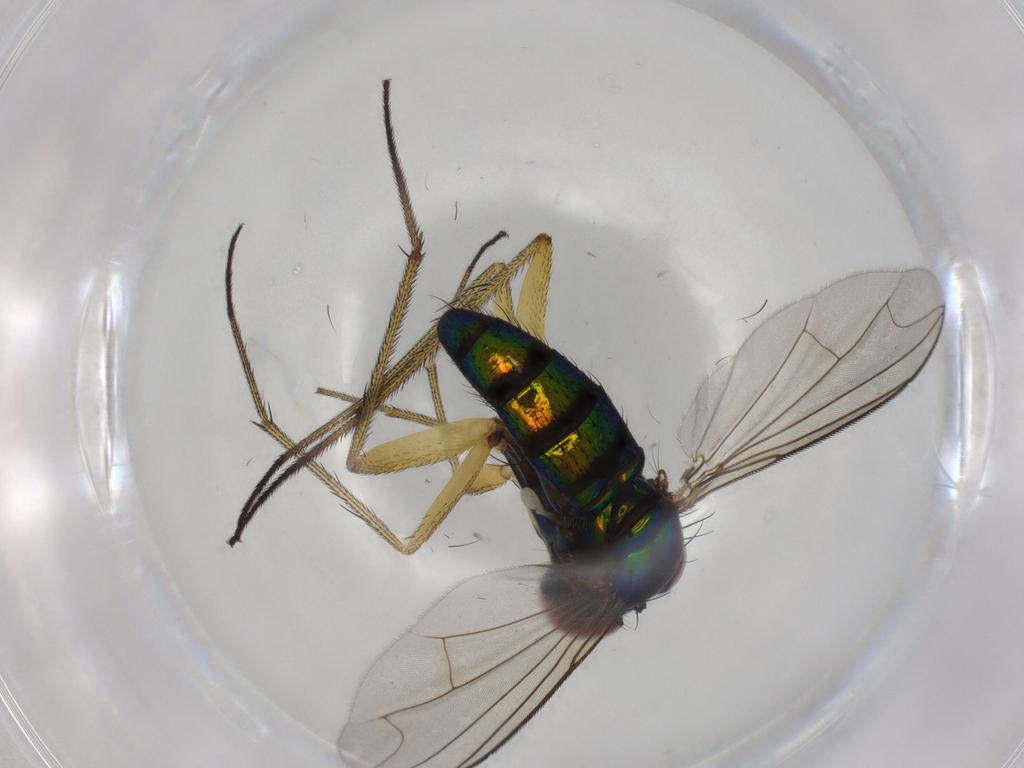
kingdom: Animalia
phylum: Arthropoda
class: Insecta
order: Diptera
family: Dolichopodidae
